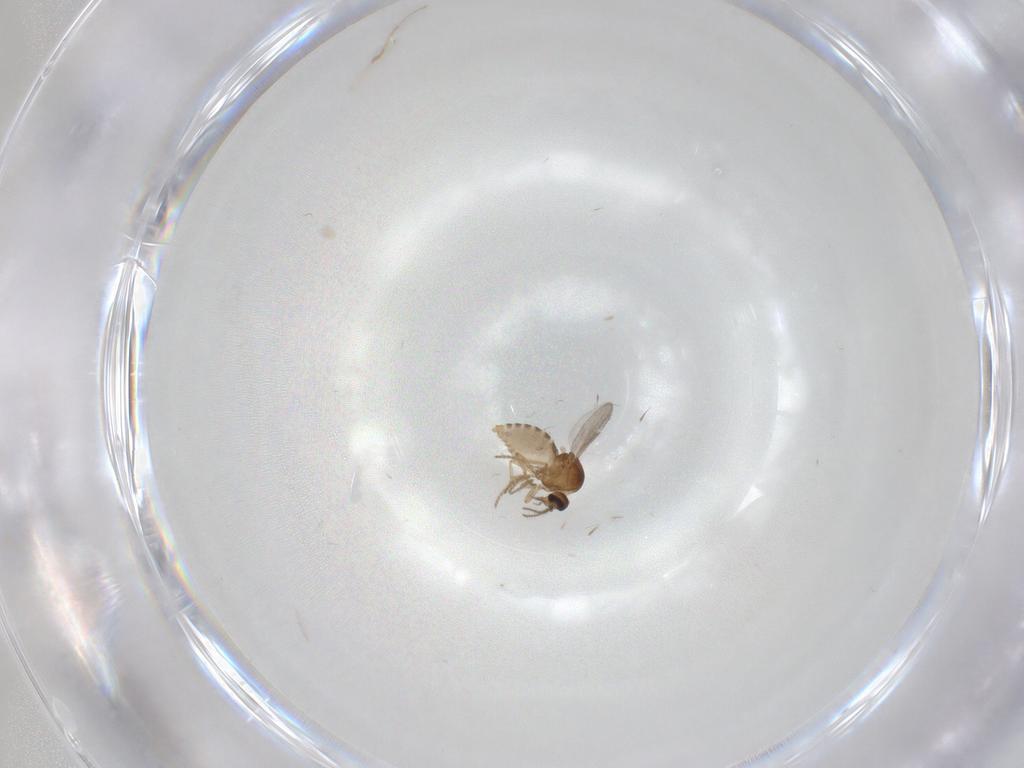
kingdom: Animalia
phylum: Arthropoda
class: Insecta
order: Diptera
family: Ceratopogonidae
